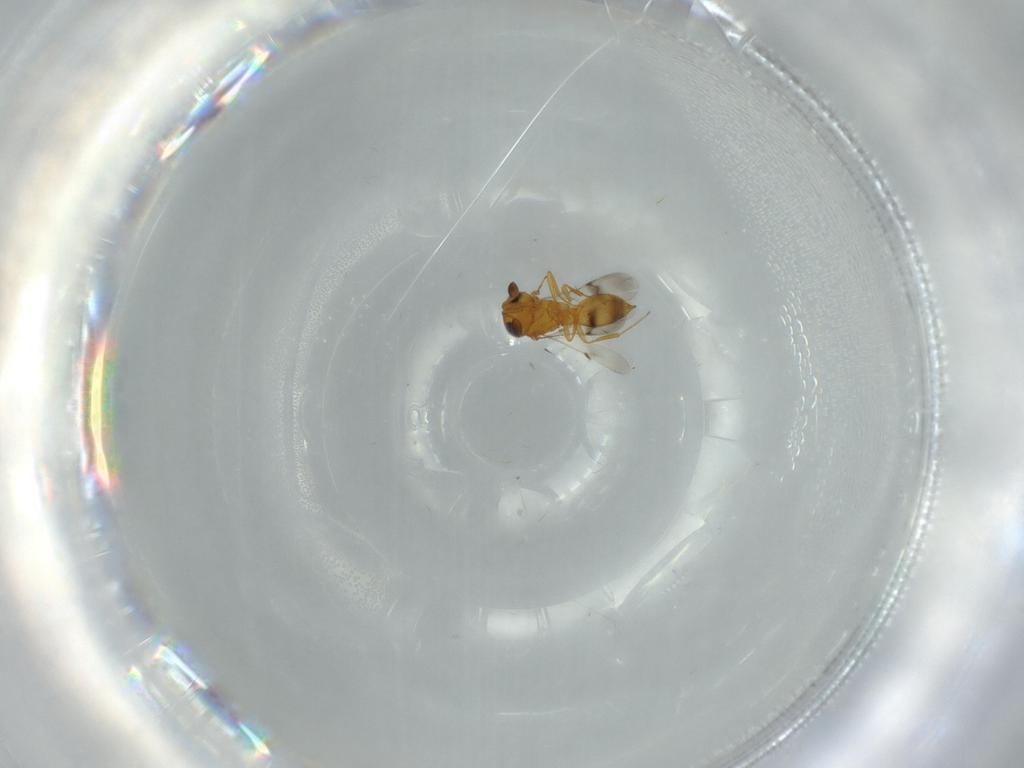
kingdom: Animalia
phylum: Arthropoda
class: Insecta
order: Hymenoptera
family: Scelionidae
